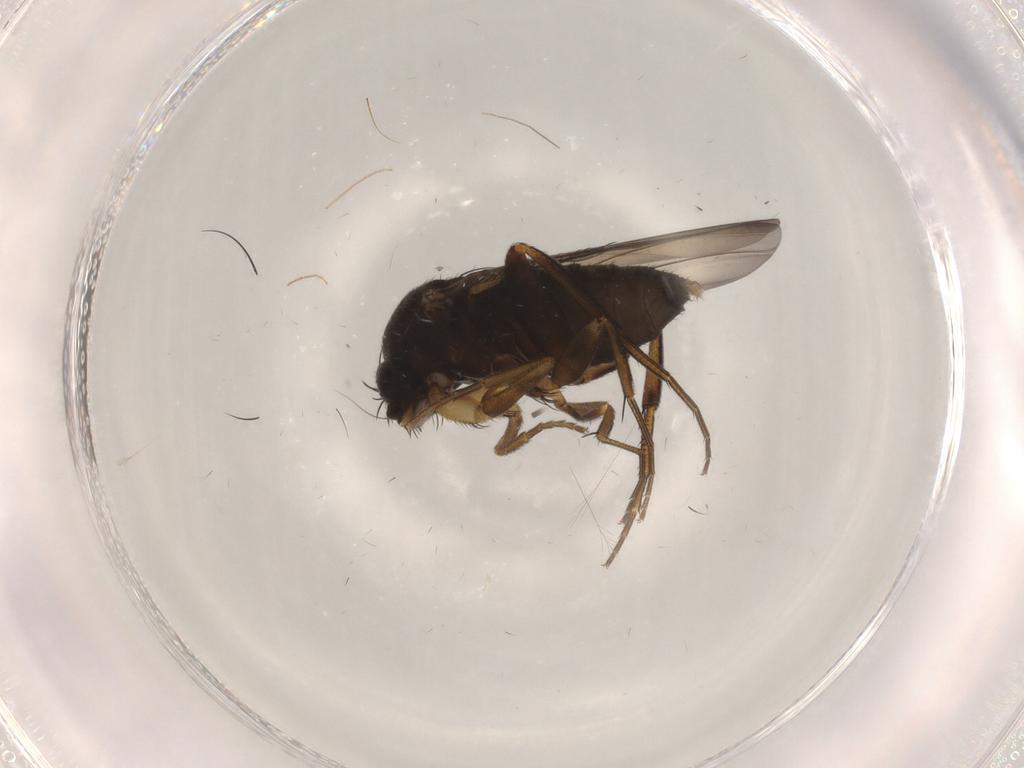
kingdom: Animalia
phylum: Arthropoda
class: Insecta
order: Diptera
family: Phoridae
